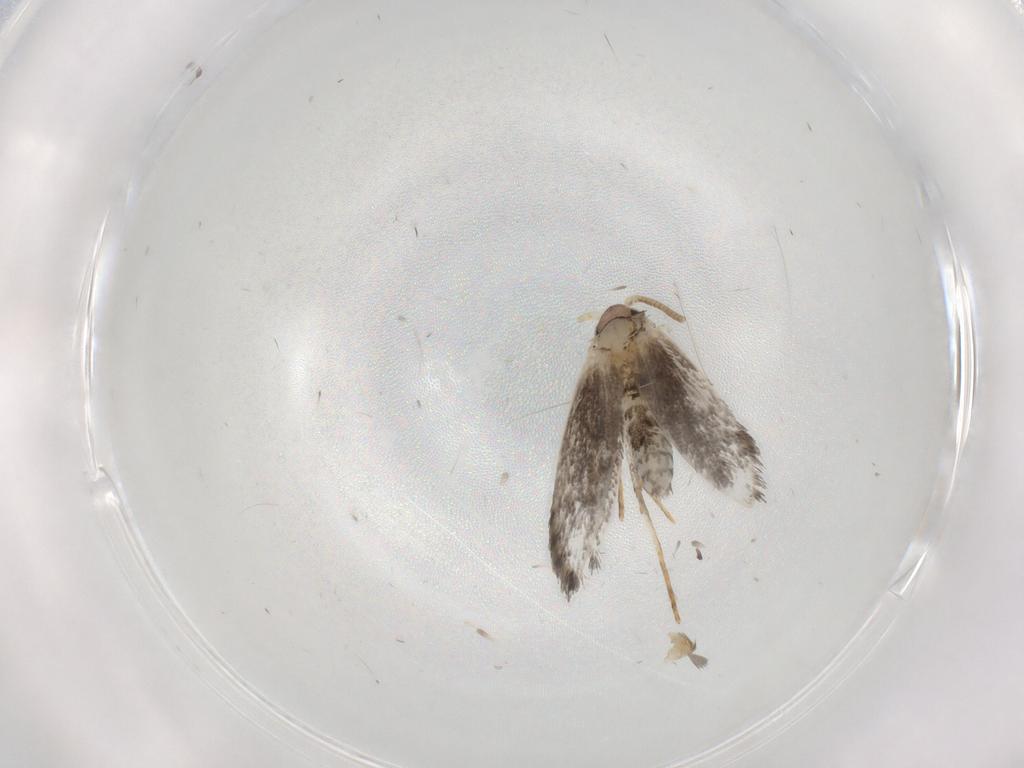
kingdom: Animalia
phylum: Arthropoda
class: Insecta
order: Lepidoptera
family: Tineidae
